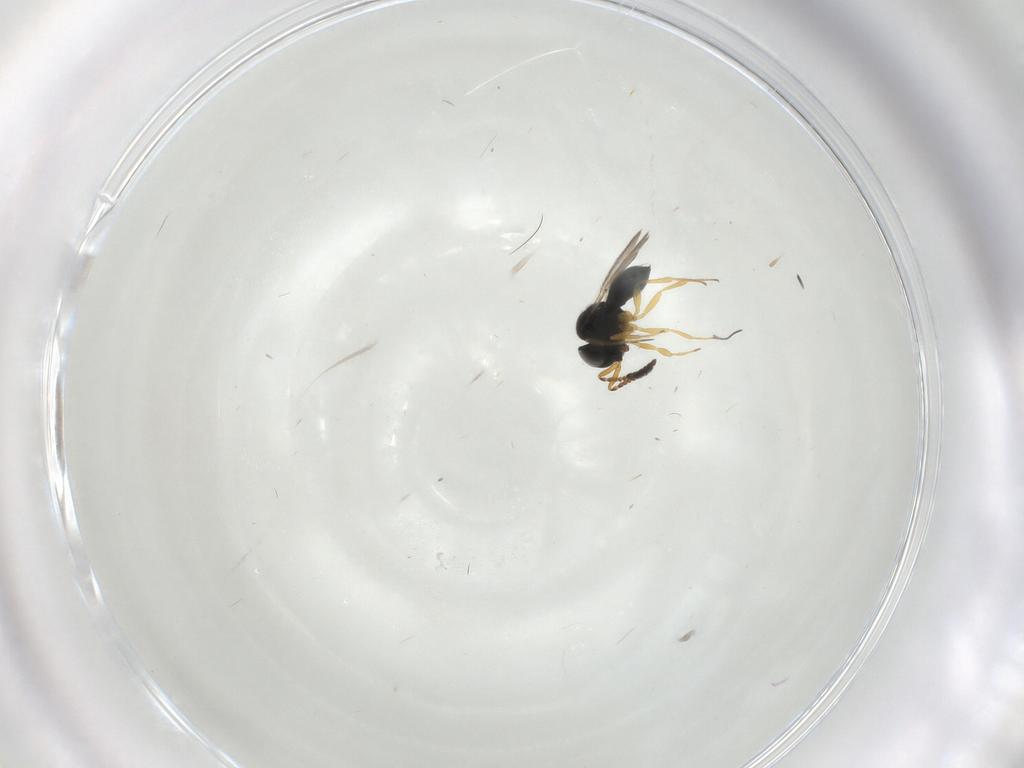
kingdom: Animalia
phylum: Arthropoda
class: Insecta
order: Hymenoptera
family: Scelionidae
